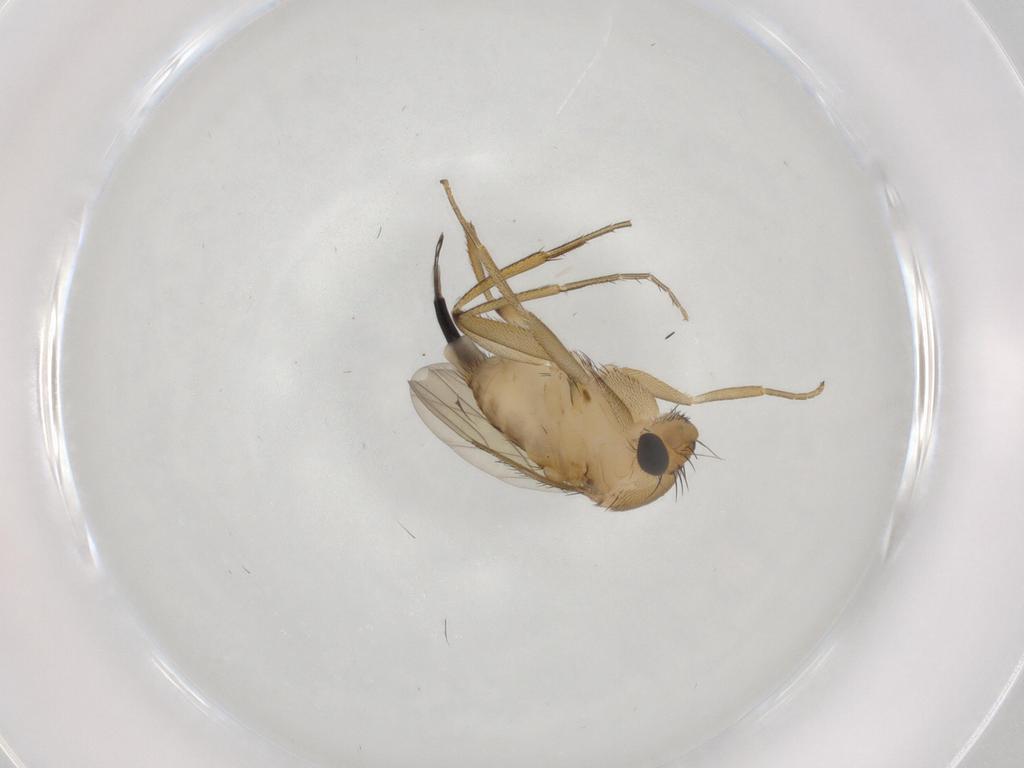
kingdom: Animalia
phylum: Arthropoda
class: Insecta
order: Diptera
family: Phoridae
